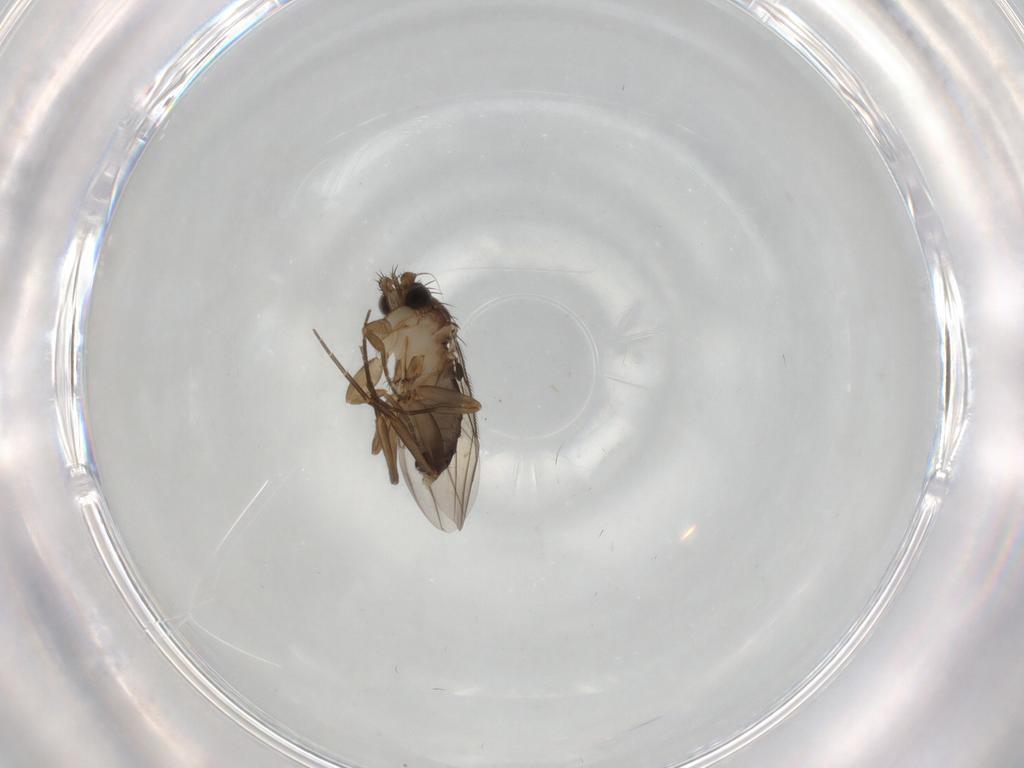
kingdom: Animalia
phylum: Arthropoda
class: Insecta
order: Diptera
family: Phoridae
